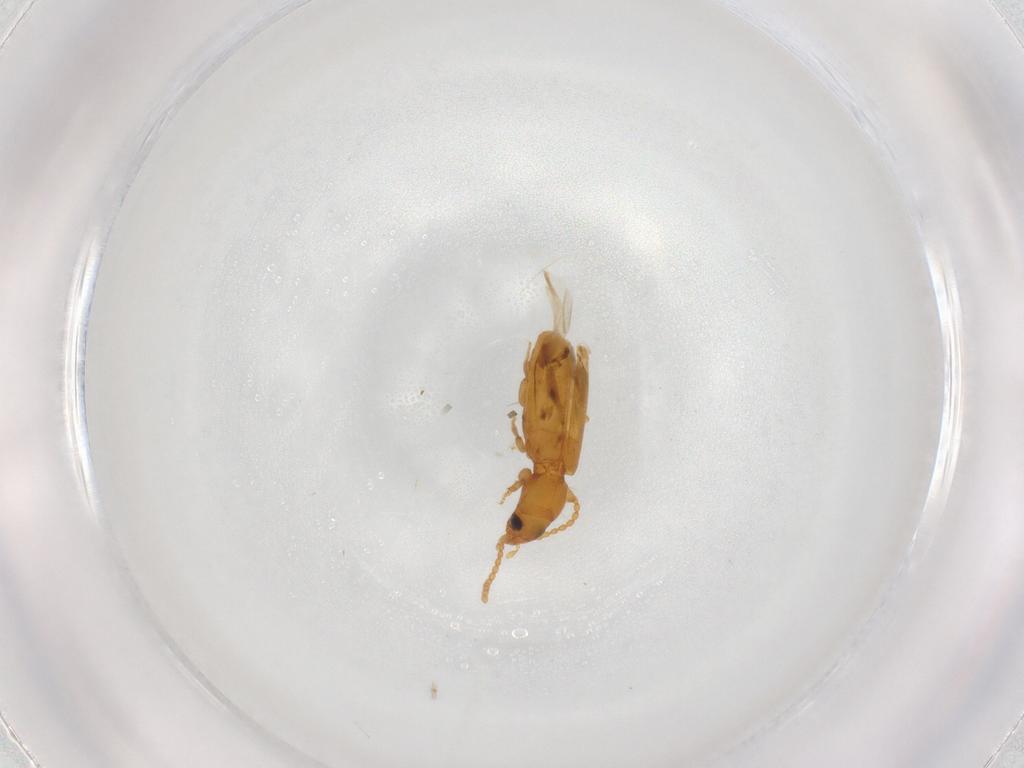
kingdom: Animalia
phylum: Arthropoda
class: Insecta
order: Coleoptera
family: Carabidae
